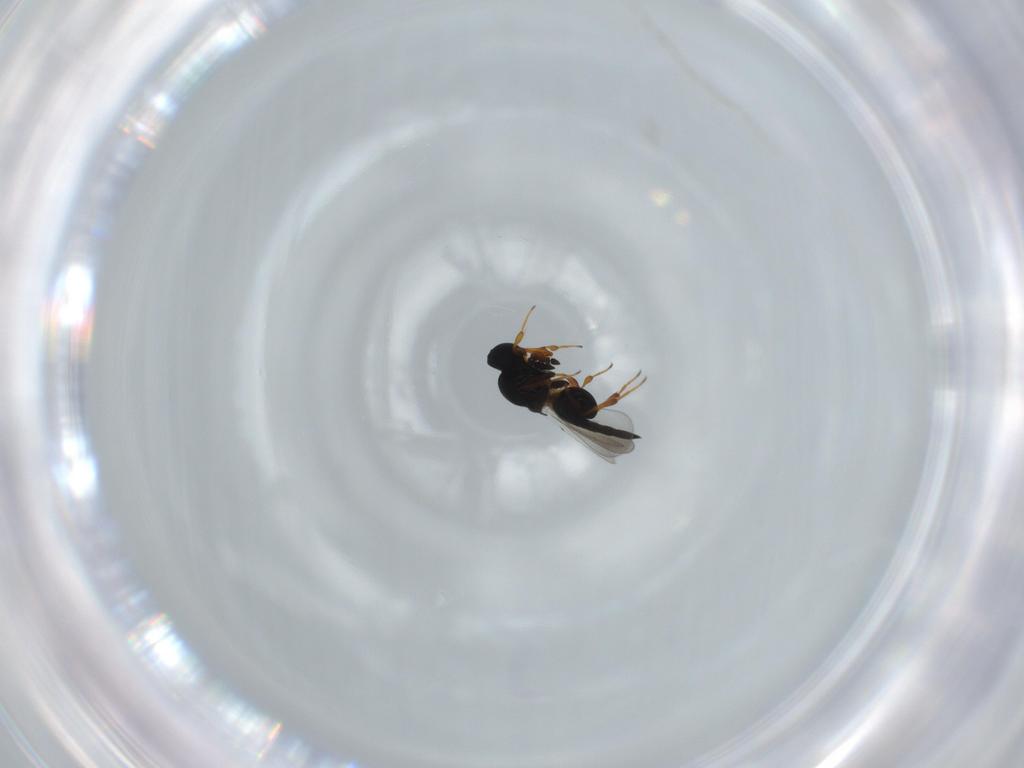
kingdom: Animalia
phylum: Arthropoda
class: Insecta
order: Hymenoptera
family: Platygastridae
